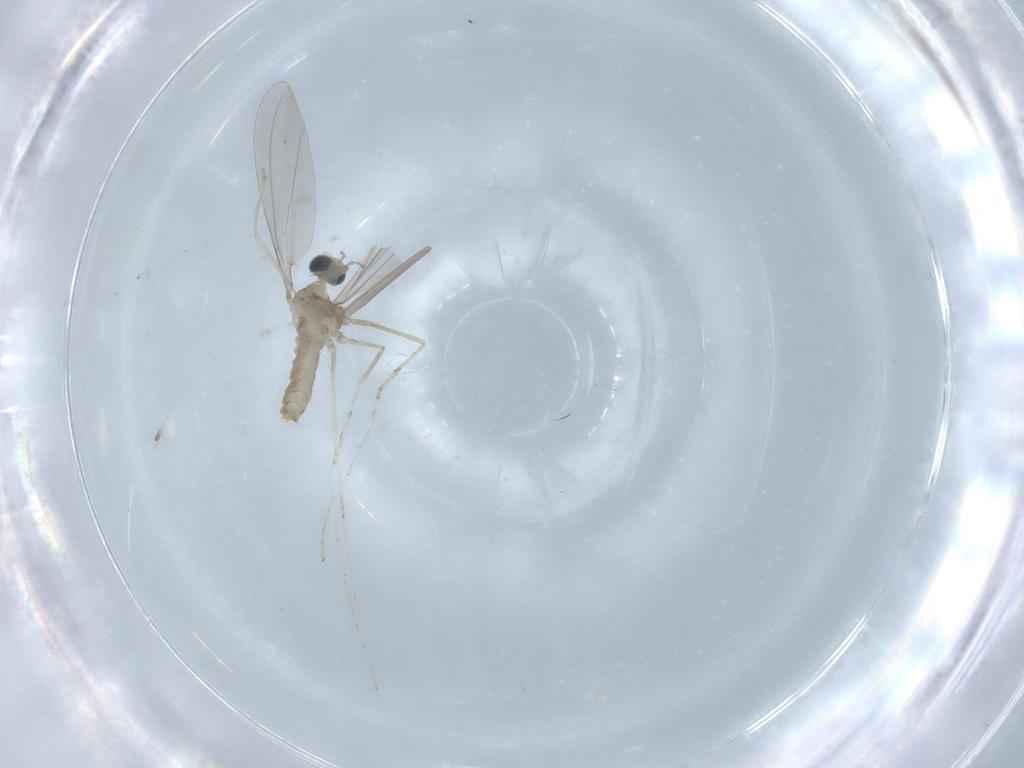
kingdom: Animalia
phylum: Arthropoda
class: Insecta
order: Diptera
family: Cecidomyiidae
